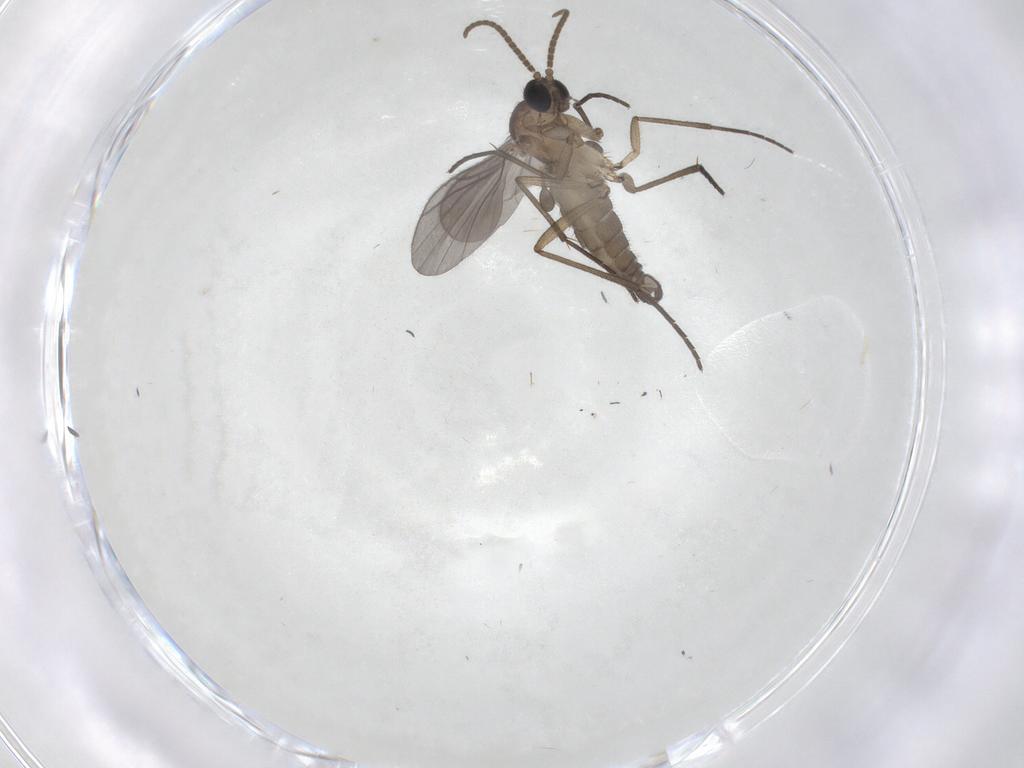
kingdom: Animalia
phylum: Arthropoda
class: Insecta
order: Diptera
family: Sciaridae
